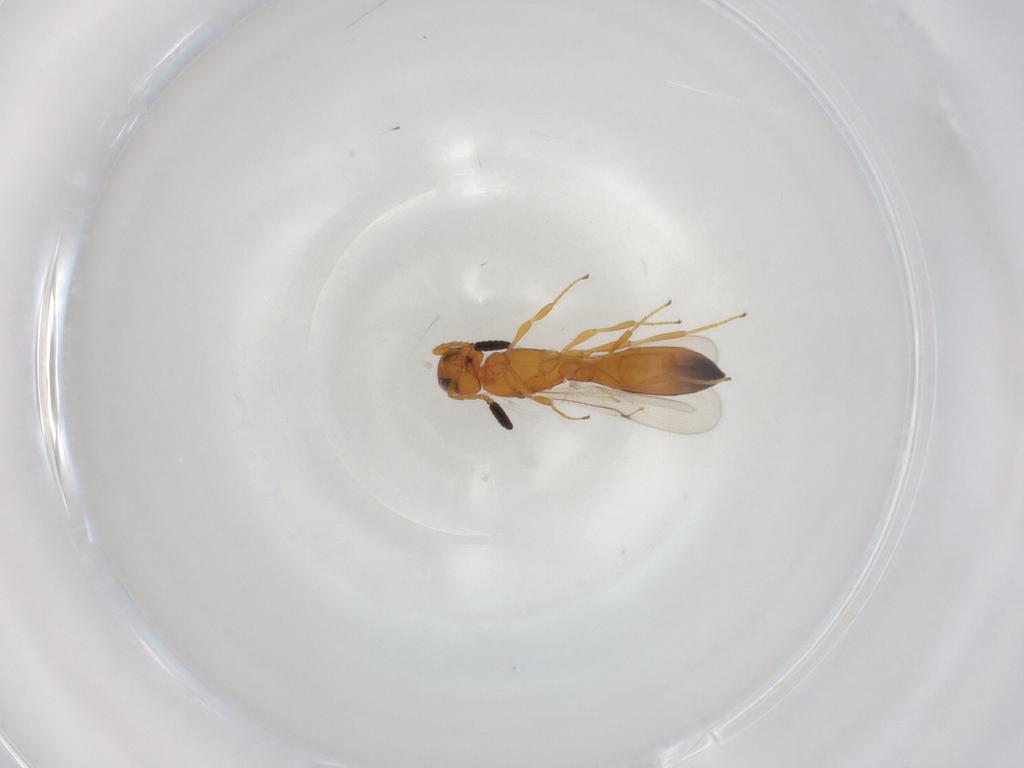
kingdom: Animalia
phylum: Arthropoda
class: Insecta
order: Hymenoptera
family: Scelionidae
